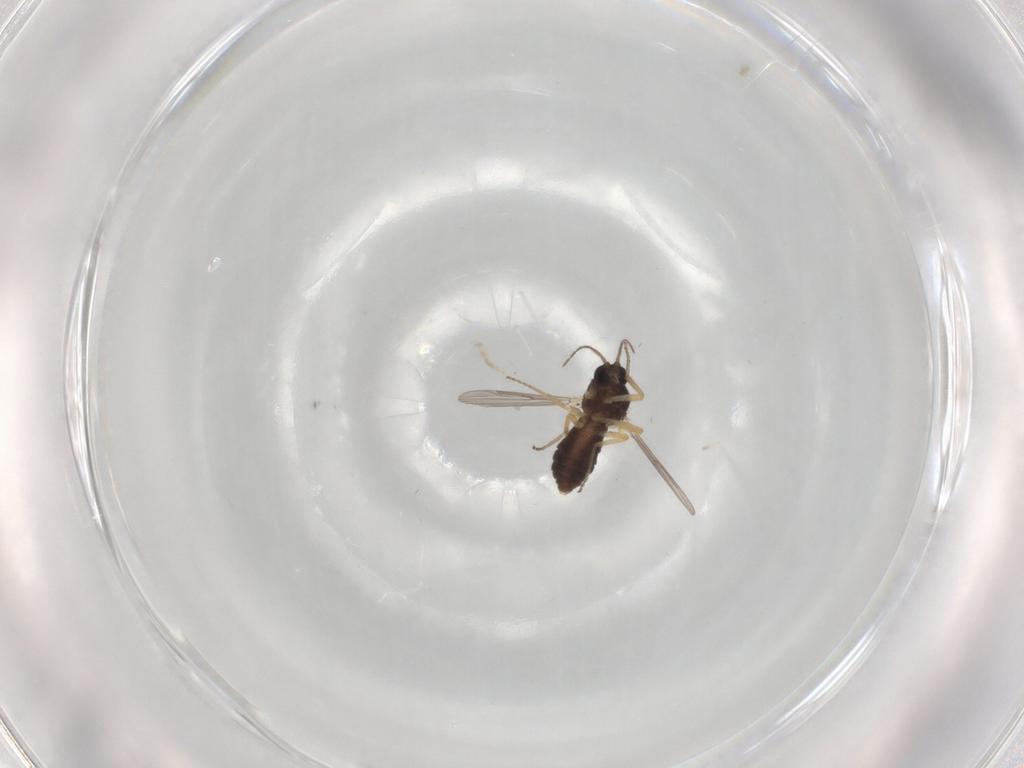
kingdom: Animalia
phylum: Arthropoda
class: Insecta
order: Diptera
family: Ceratopogonidae
